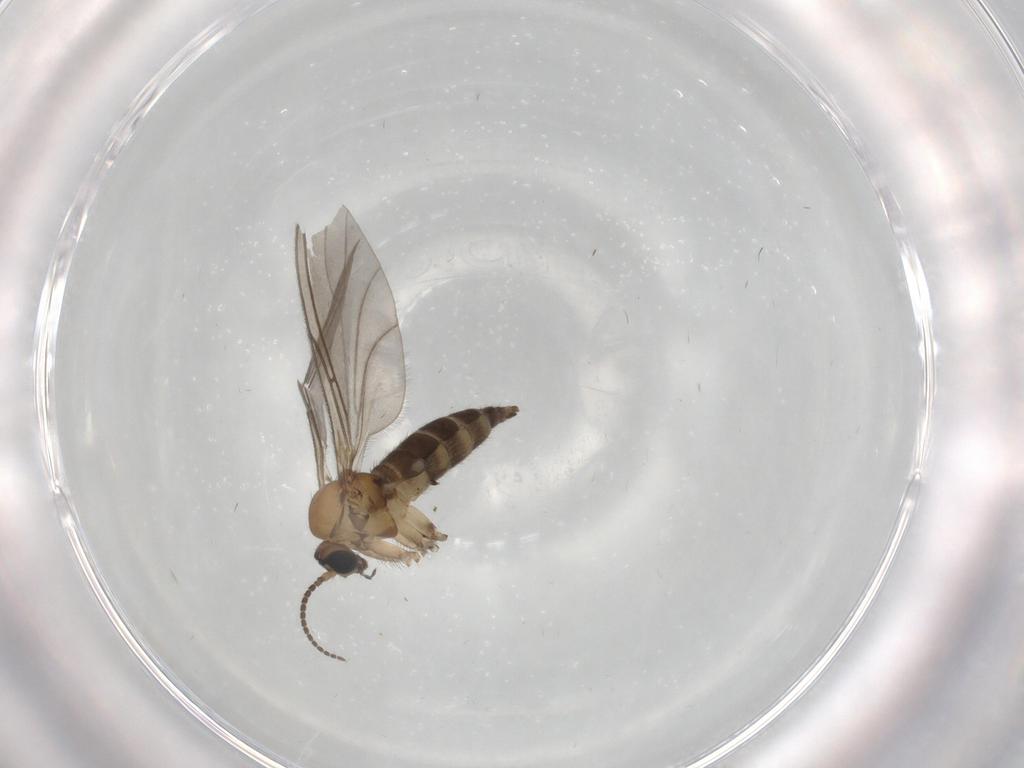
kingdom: Animalia
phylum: Arthropoda
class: Insecta
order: Diptera
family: Sciaridae
